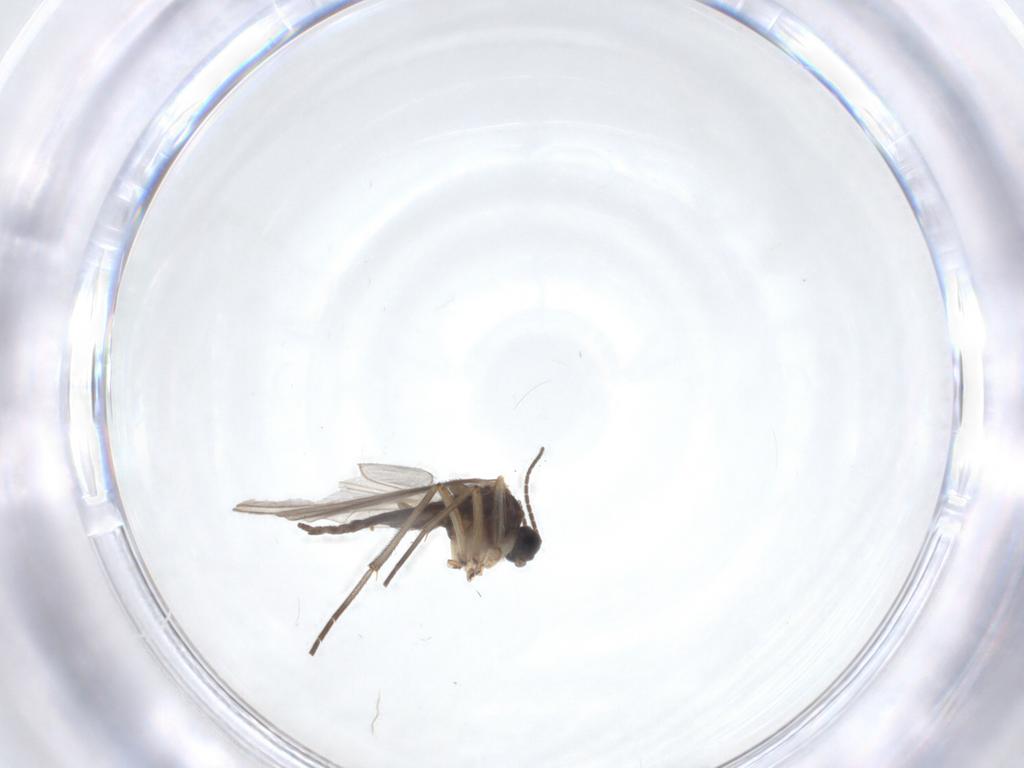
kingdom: Animalia
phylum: Arthropoda
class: Insecta
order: Diptera
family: Sciaridae
